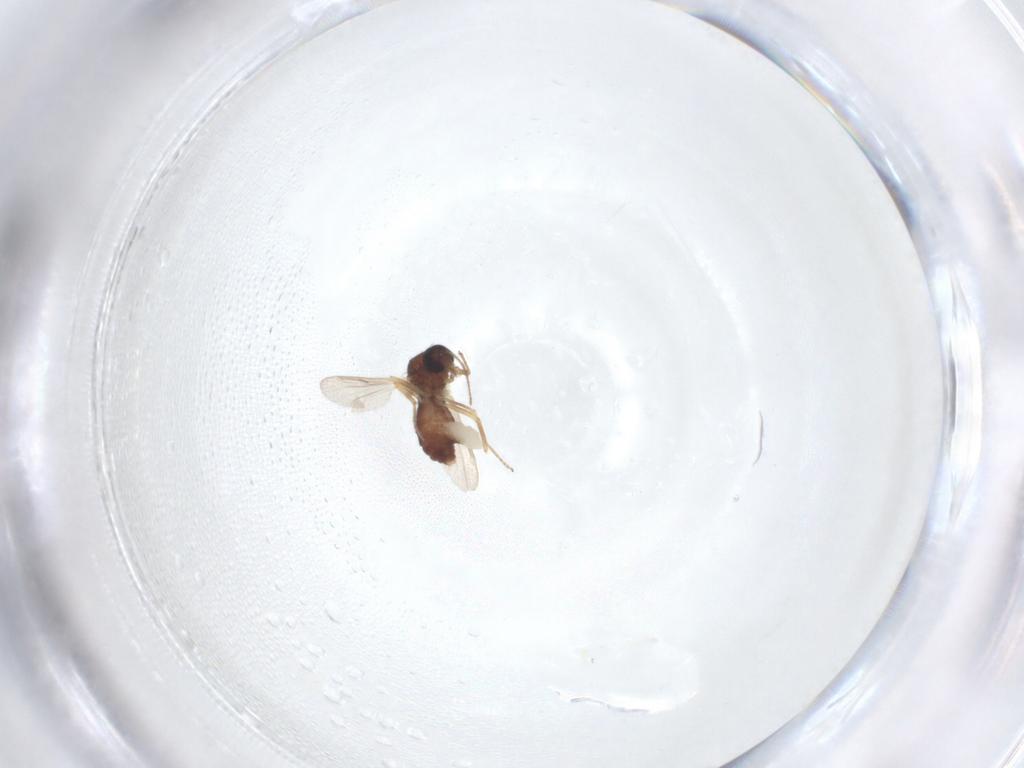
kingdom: Animalia
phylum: Arthropoda
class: Insecta
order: Diptera
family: Ceratopogonidae
